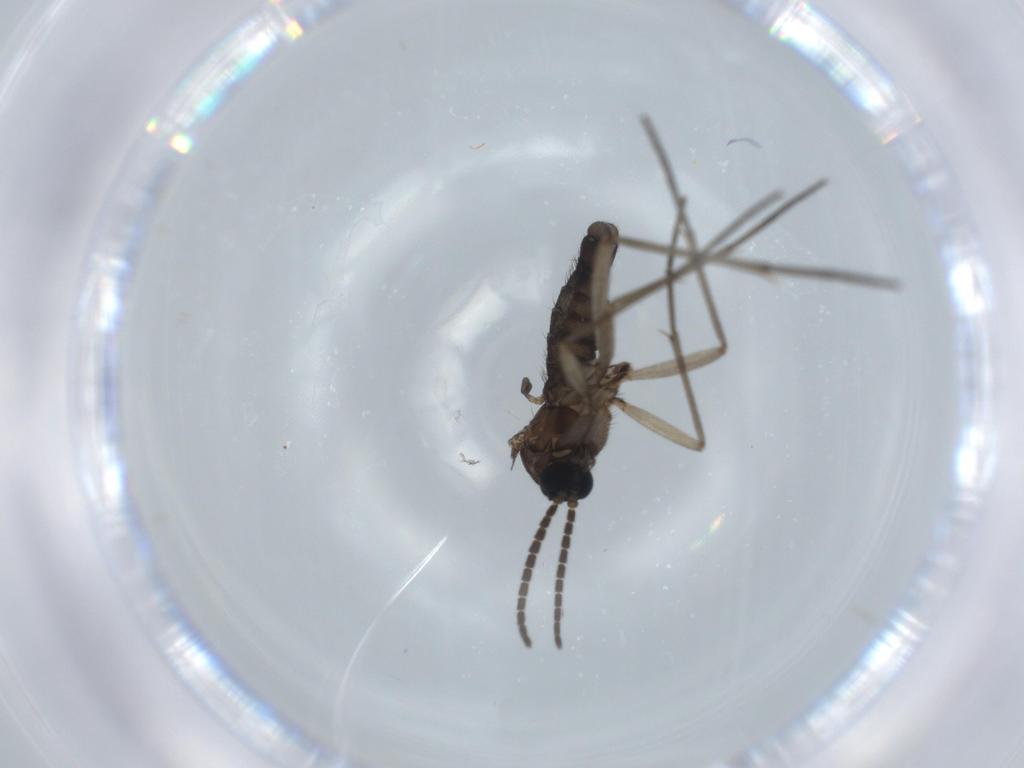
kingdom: Animalia
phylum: Arthropoda
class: Insecta
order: Diptera
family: Sciaridae
